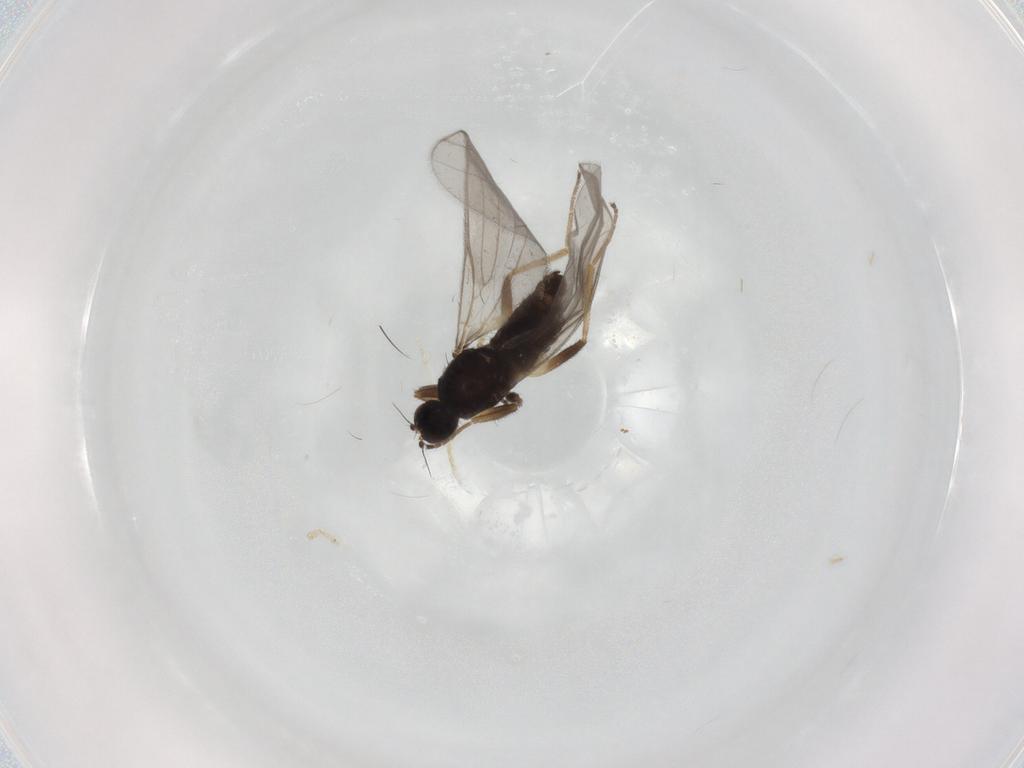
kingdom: Animalia
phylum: Arthropoda
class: Insecta
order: Diptera
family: Hybotidae
